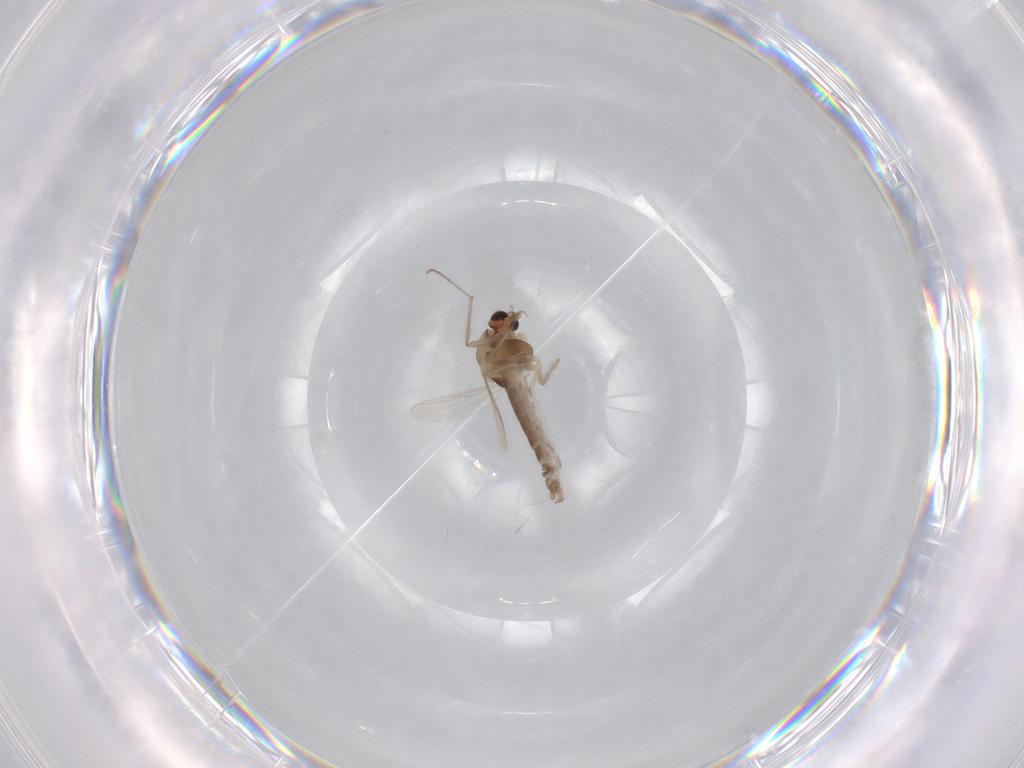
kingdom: Animalia
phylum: Arthropoda
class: Insecta
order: Diptera
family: Chironomidae
